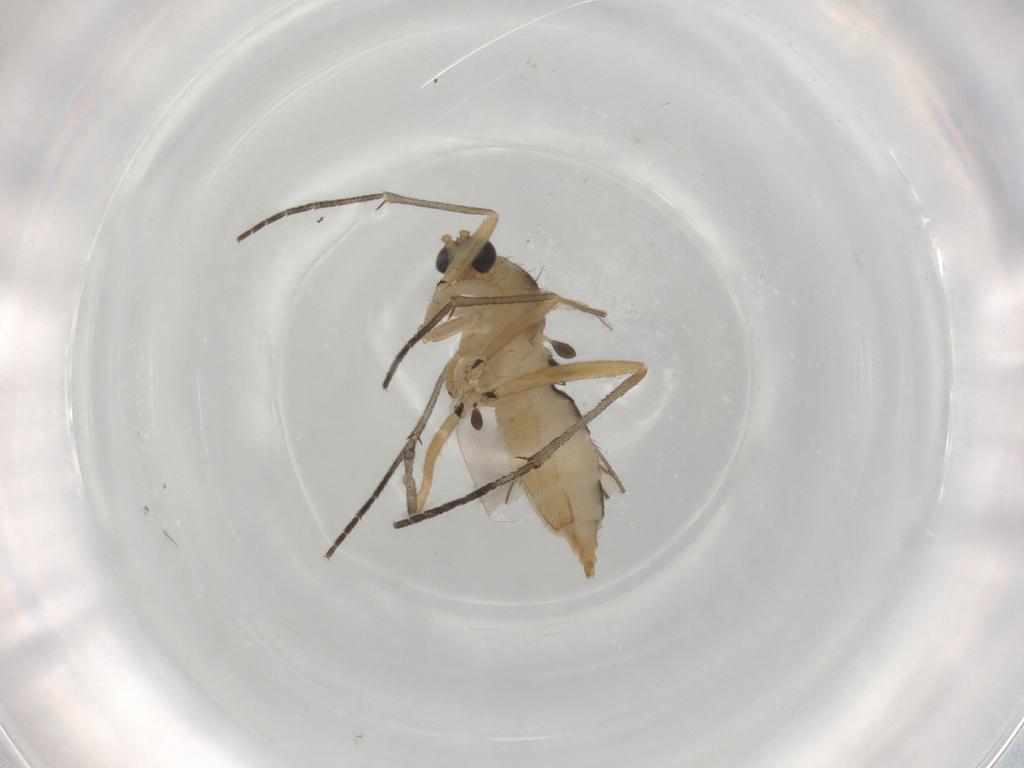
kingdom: Animalia
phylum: Arthropoda
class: Insecta
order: Diptera
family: Sciaridae
